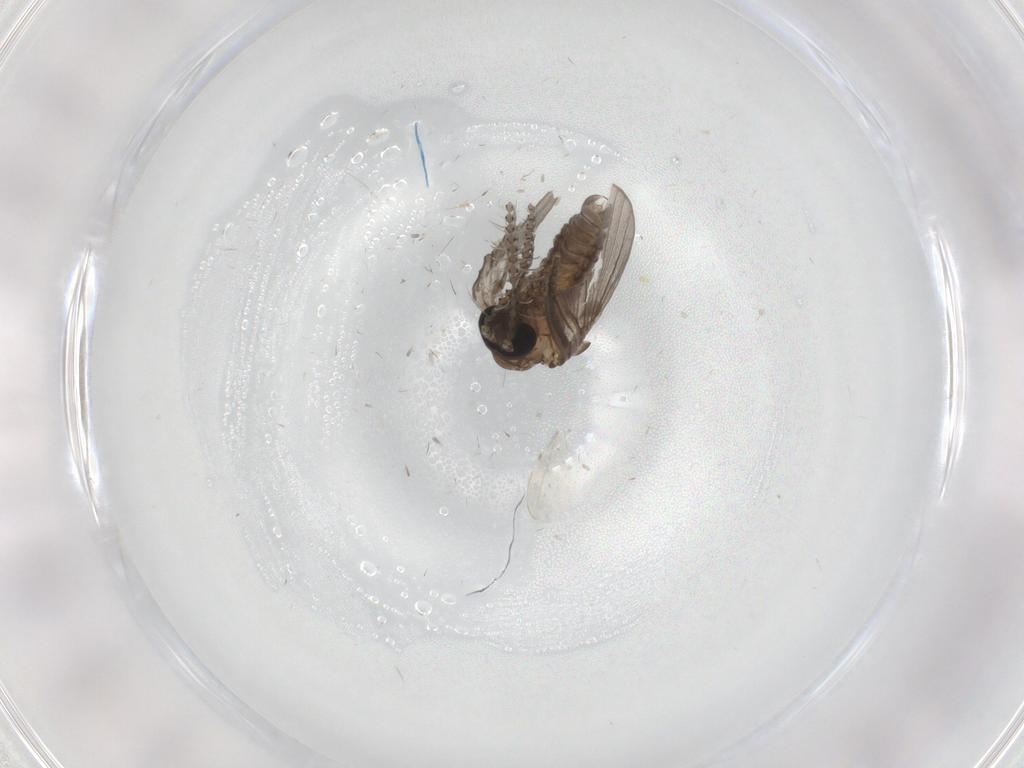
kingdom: Animalia
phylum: Arthropoda
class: Insecta
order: Diptera
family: Psychodidae
